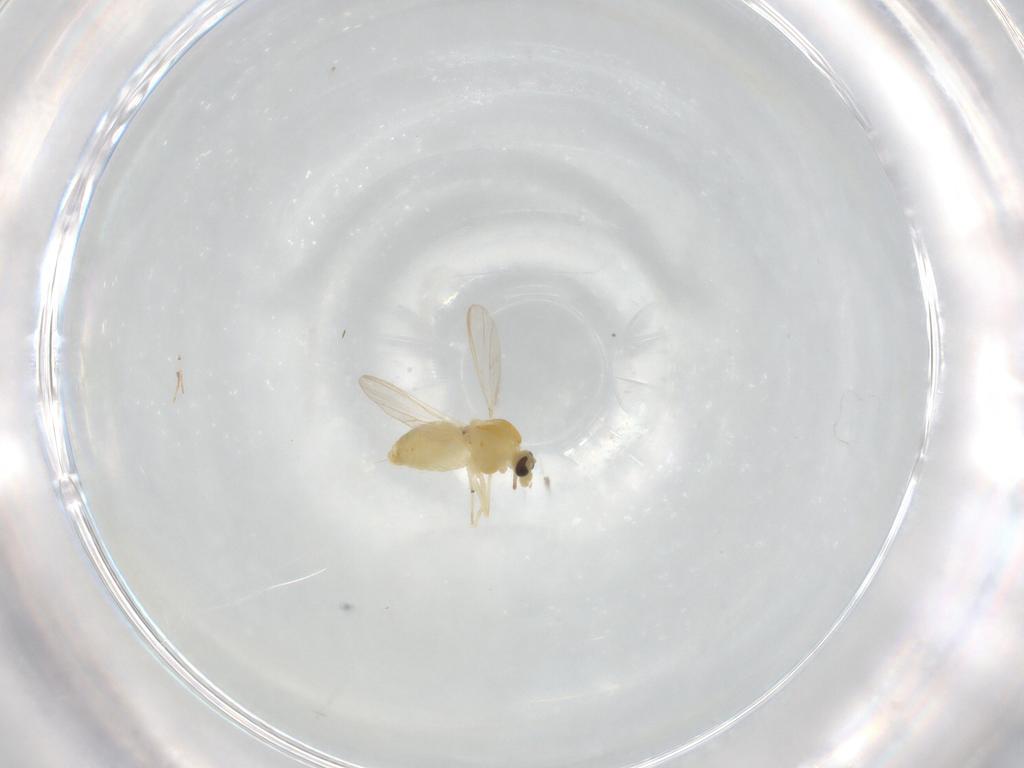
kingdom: Animalia
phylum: Arthropoda
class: Insecta
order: Diptera
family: Chironomidae
